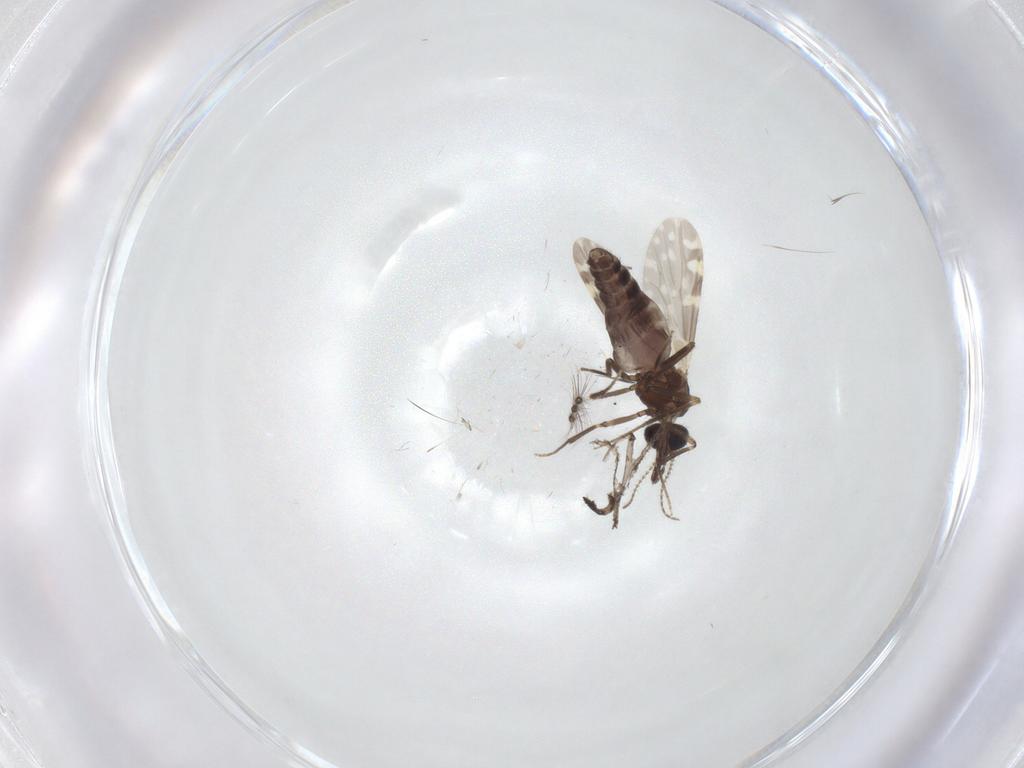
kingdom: Animalia
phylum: Arthropoda
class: Insecta
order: Diptera
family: Ceratopogonidae
